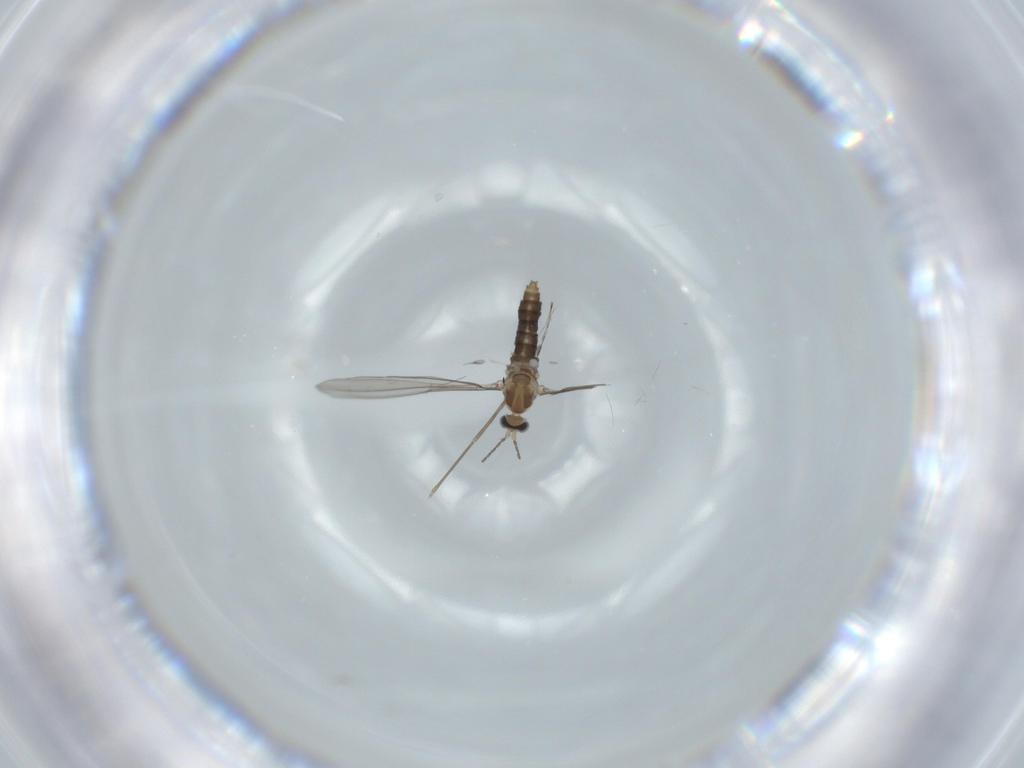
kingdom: Animalia
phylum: Arthropoda
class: Insecta
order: Diptera
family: Cecidomyiidae
